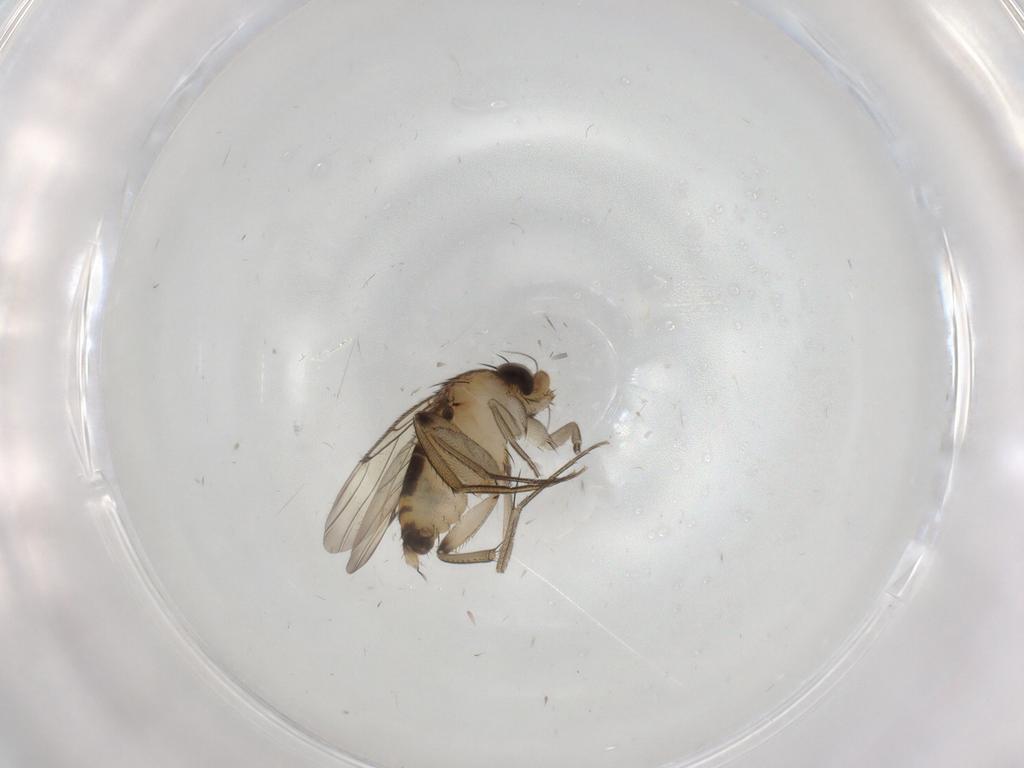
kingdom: Animalia
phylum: Arthropoda
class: Insecta
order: Diptera
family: Phoridae
